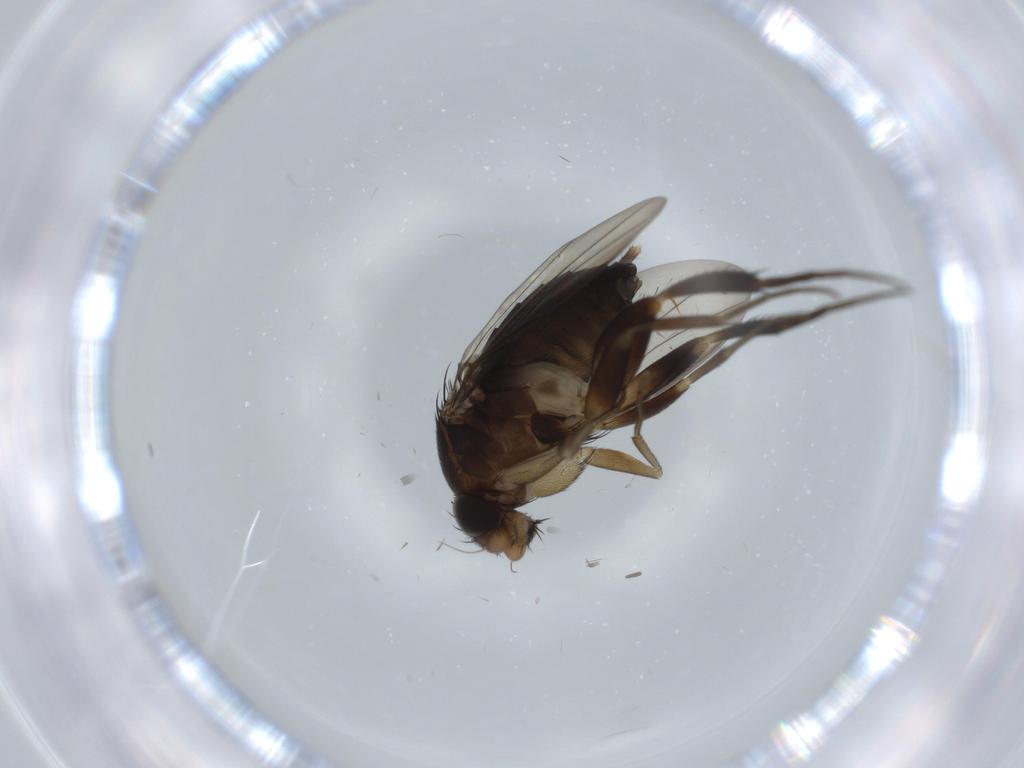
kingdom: Animalia
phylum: Arthropoda
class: Insecta
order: Diptera
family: Phoridae
